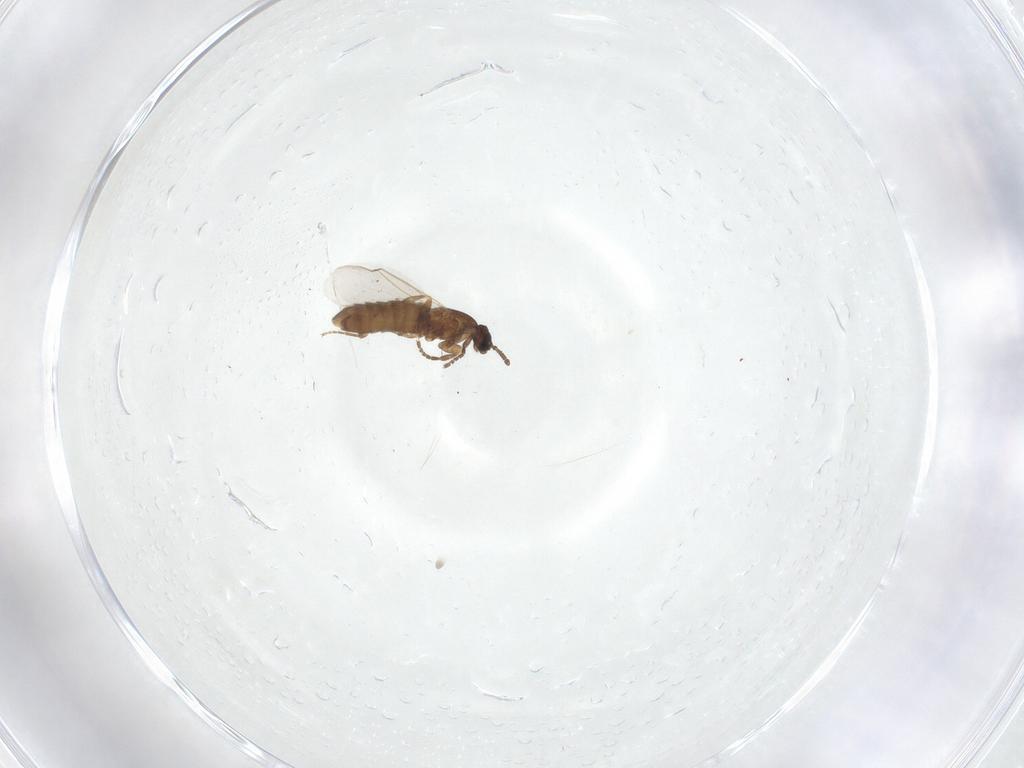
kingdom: Animalia
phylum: Arthropoda
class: Insecta
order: Diptera
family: Scatopsidae
